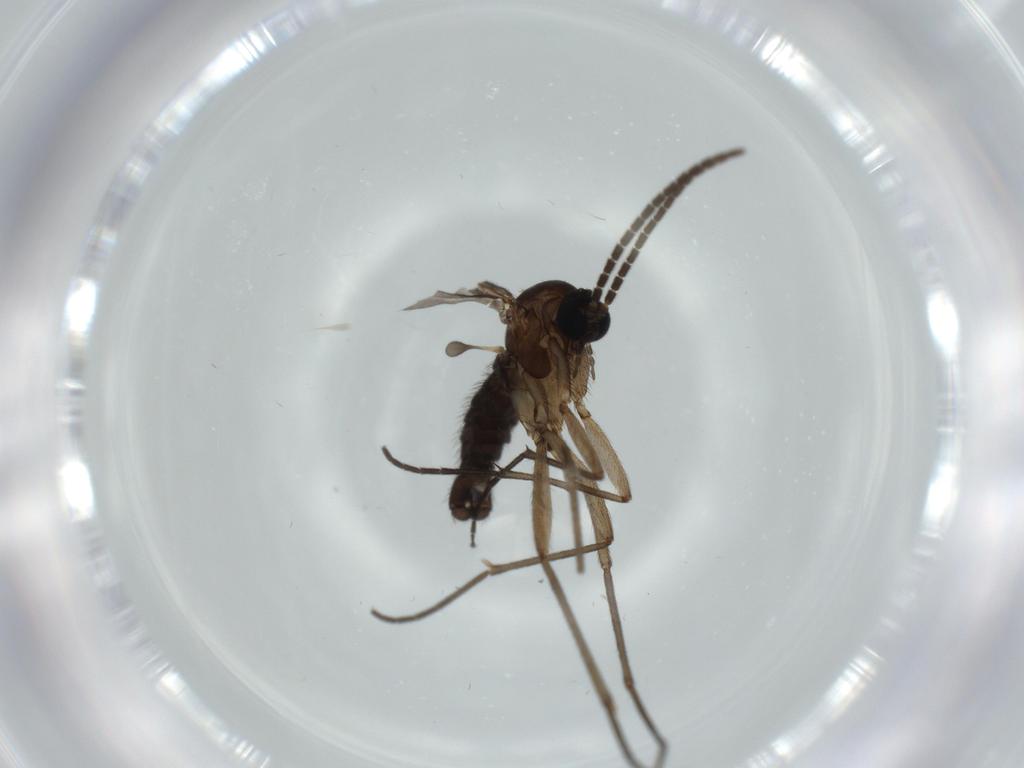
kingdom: Animalia
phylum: Arthropoda
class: Insecta
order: Diptera
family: Sciaridae
